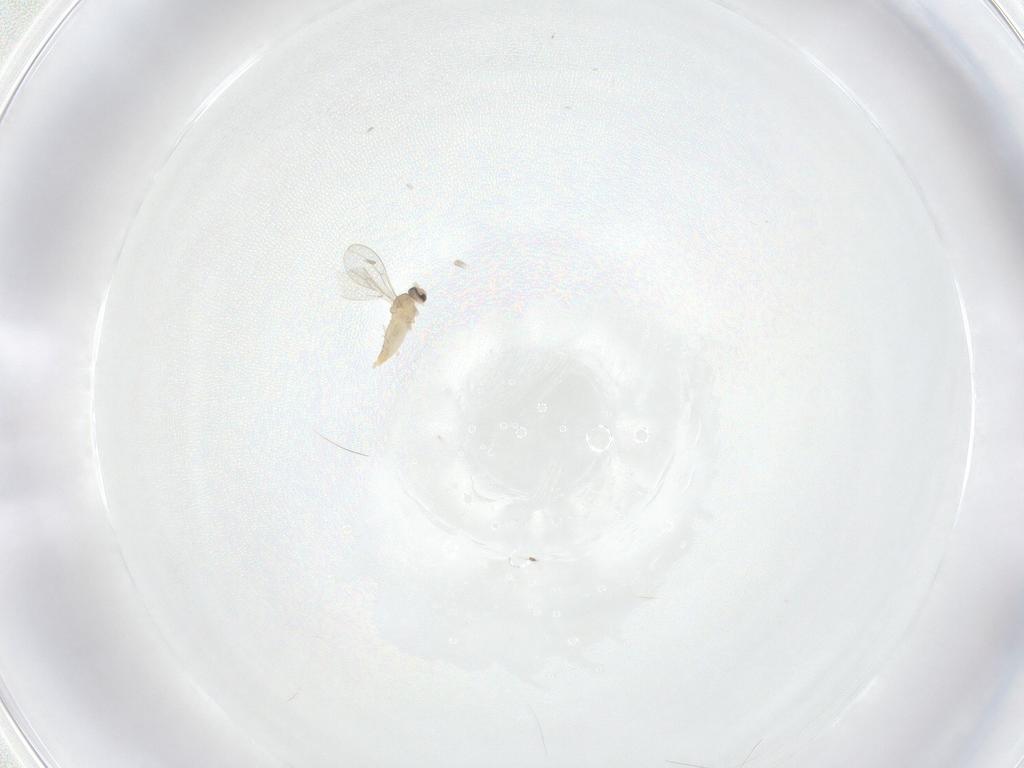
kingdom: Animalia
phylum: Arthropoda
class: Insecta
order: Diptera
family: Cecidomyiidae
